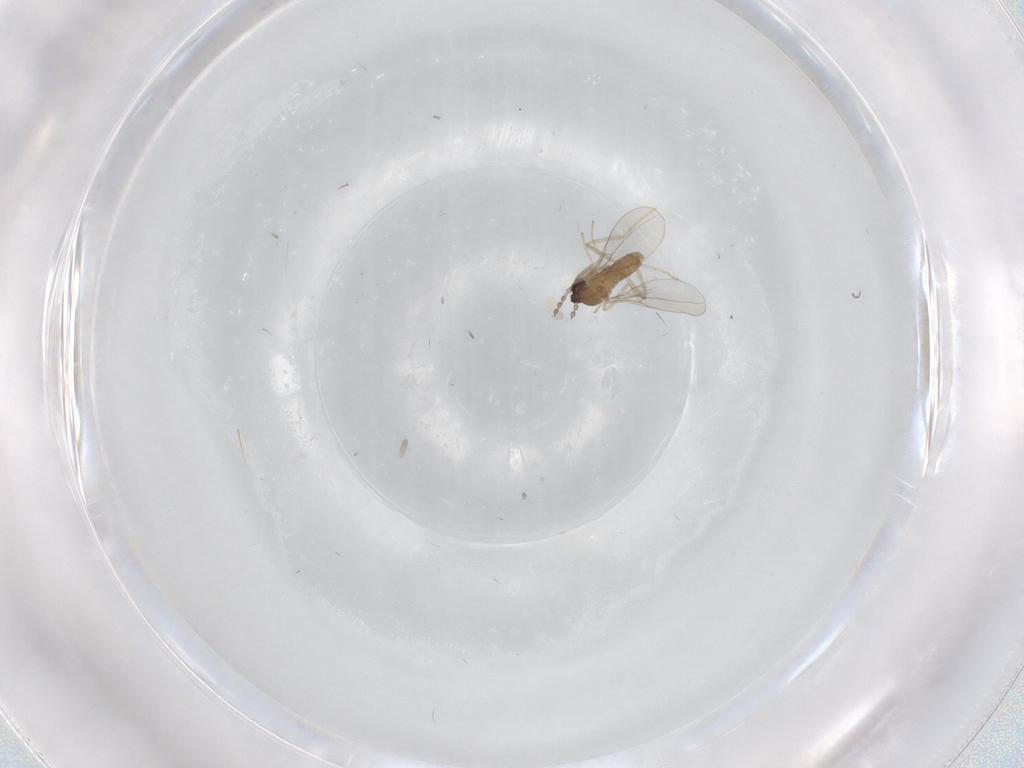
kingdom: Animalia
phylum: Arthropoda
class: Insecta
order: Diptera
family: Cecidomyiidae
